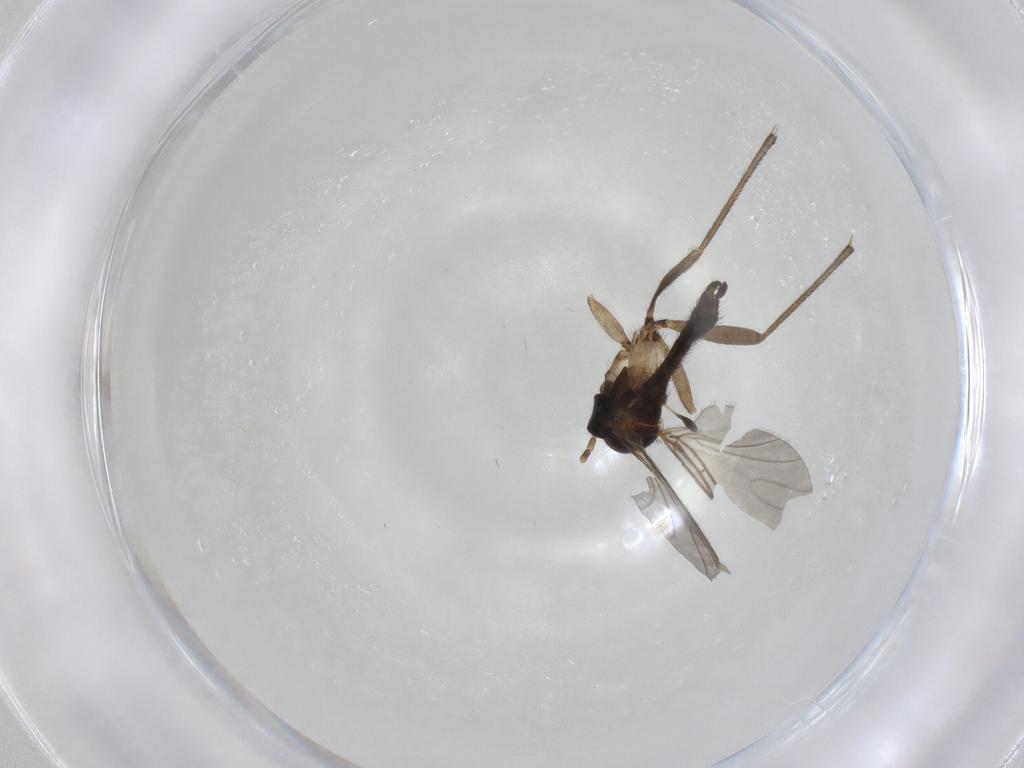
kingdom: Animalia
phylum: Arthropoda
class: Insecta
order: Diptera
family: Sciaridae
